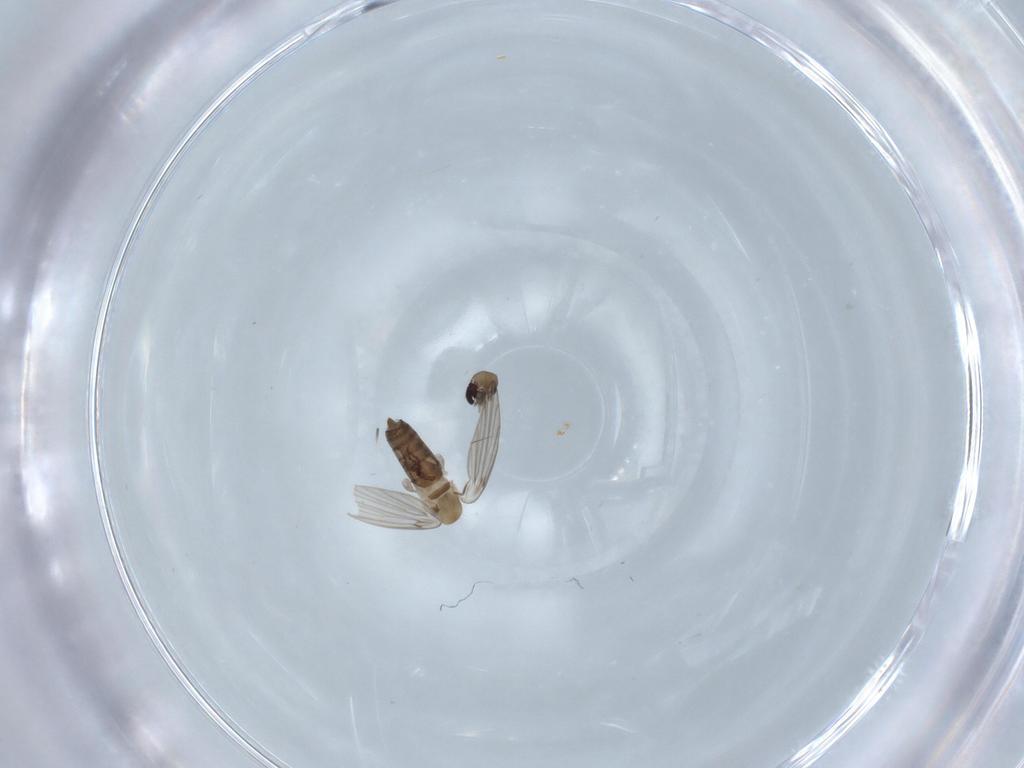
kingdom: Animalia
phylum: Arthropoda
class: Insecta
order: Diptera
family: Psychodidae
